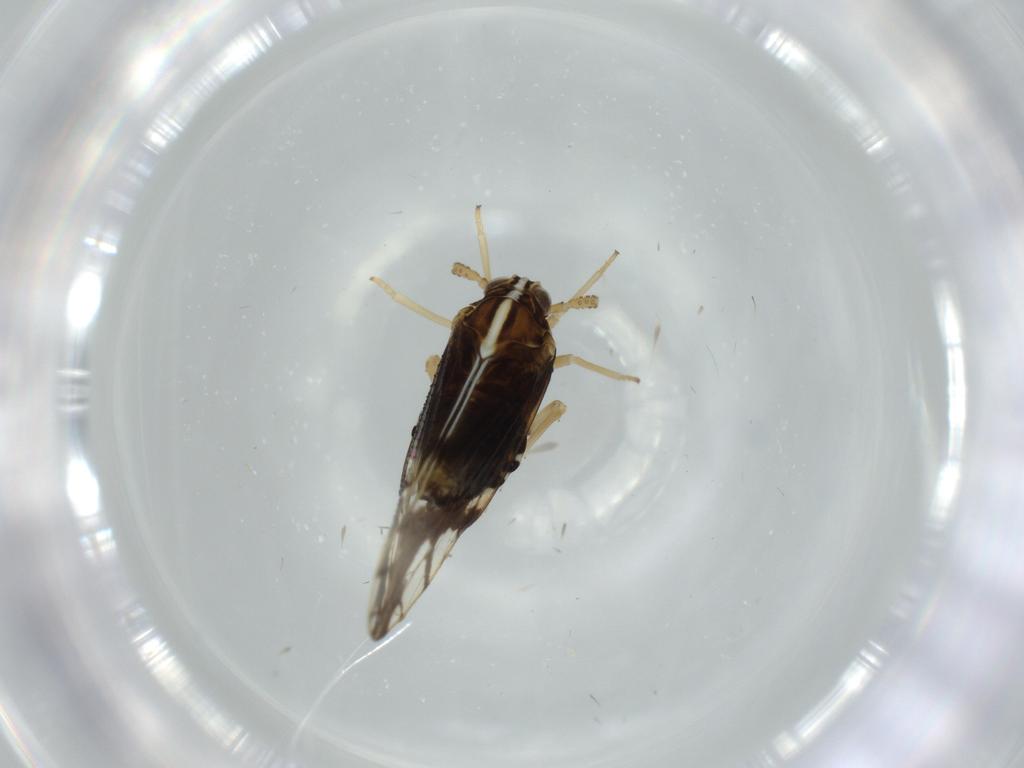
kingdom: Animalia
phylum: Arthropoda
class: Insecta
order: Hemiptera
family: Delphacidae
